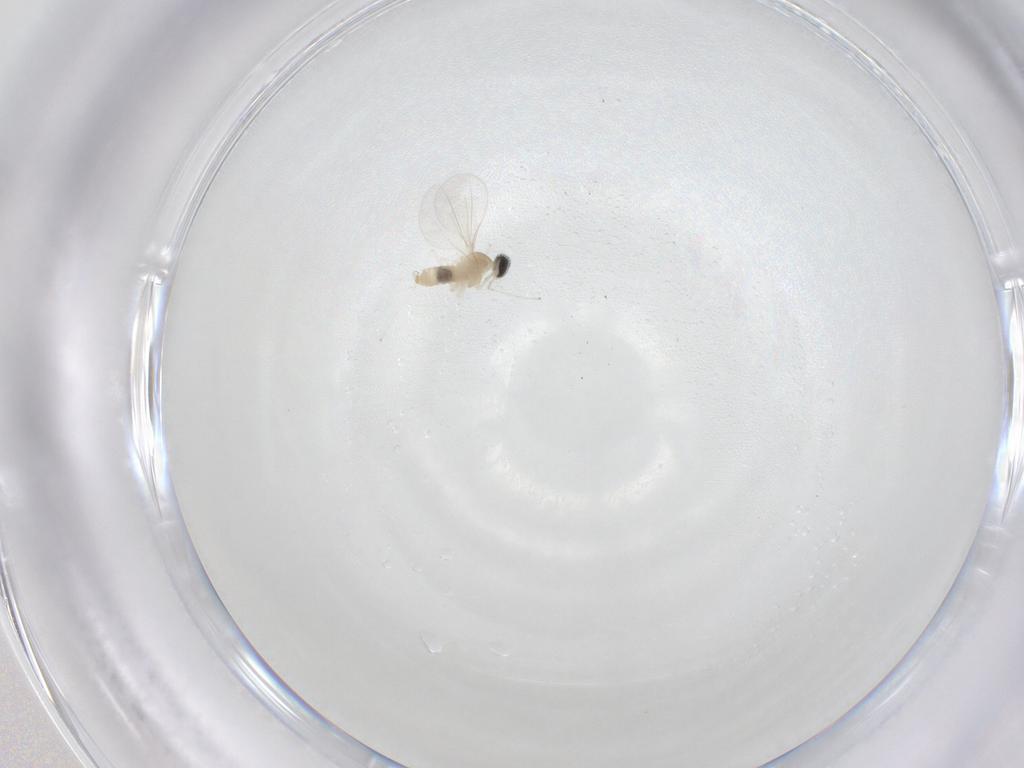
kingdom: Animalia
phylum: Arthropoda
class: Insecta
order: Diptera
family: Cecidomyiidae
